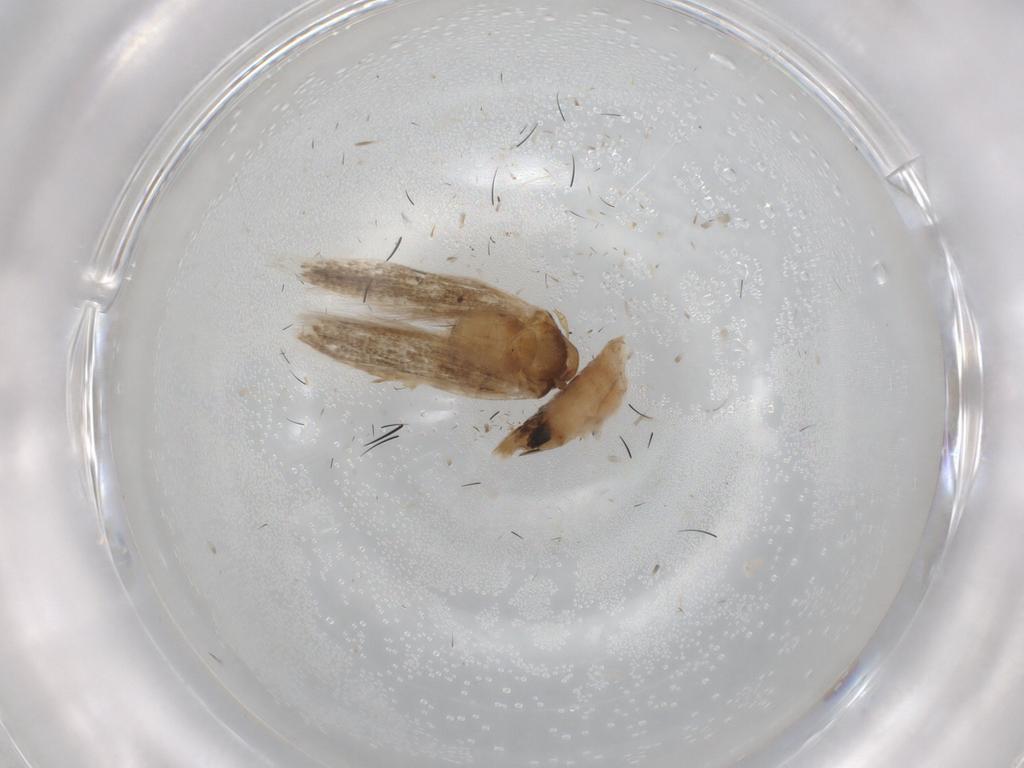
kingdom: Animalia
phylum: Arthropoda
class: Insecta
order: Lepidoptera
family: Cosmopterigidae
